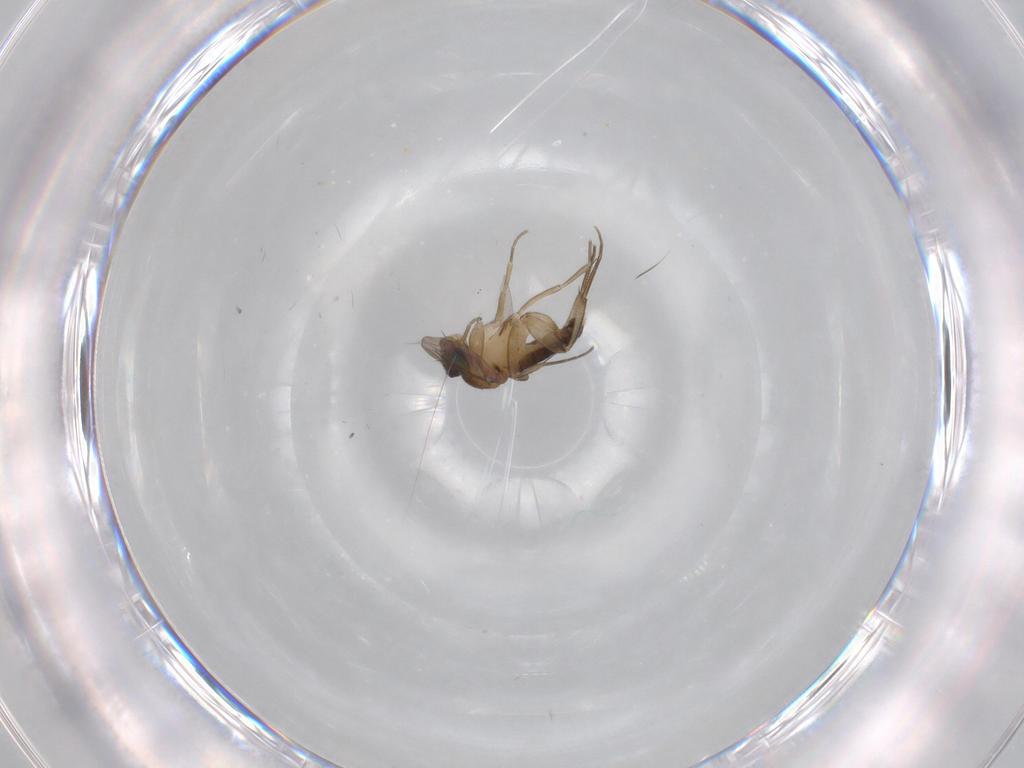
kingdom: Animalia
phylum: Arthropoda
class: Insecta
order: Diptera
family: Phoridae
